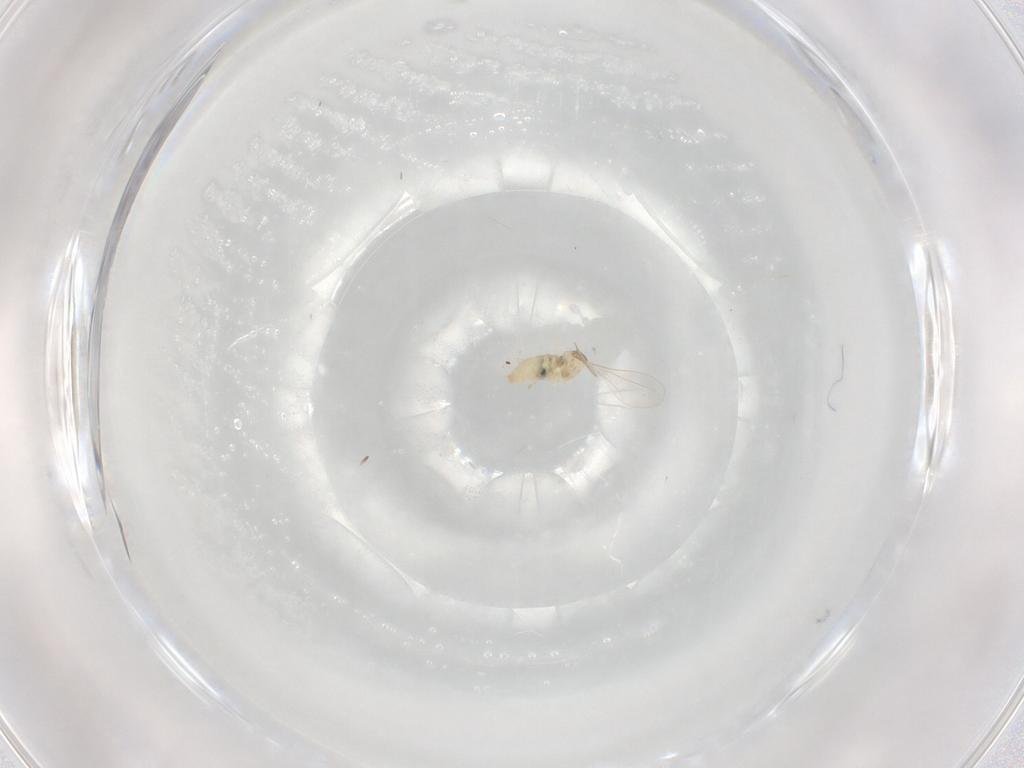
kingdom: Animalia
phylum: Arthropoda
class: Insecta
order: Diptera
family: Cecidomyiidae
